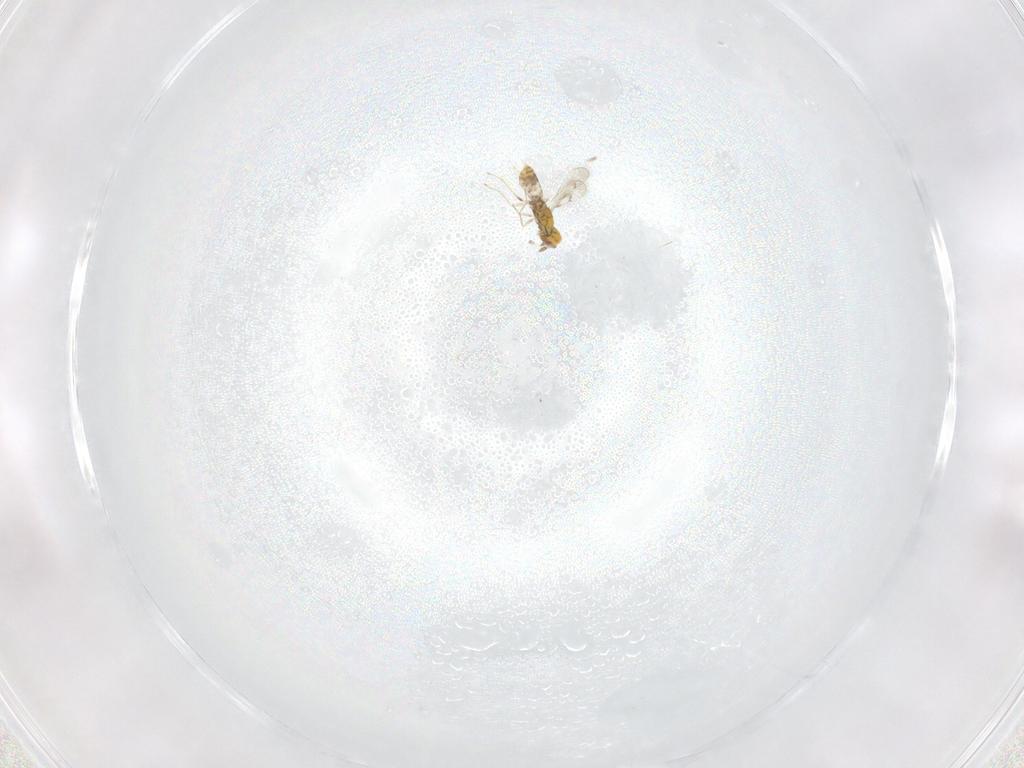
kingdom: Animalia
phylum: Arthropoda
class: Insecta
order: Hymenoptera
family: Eulophidae
